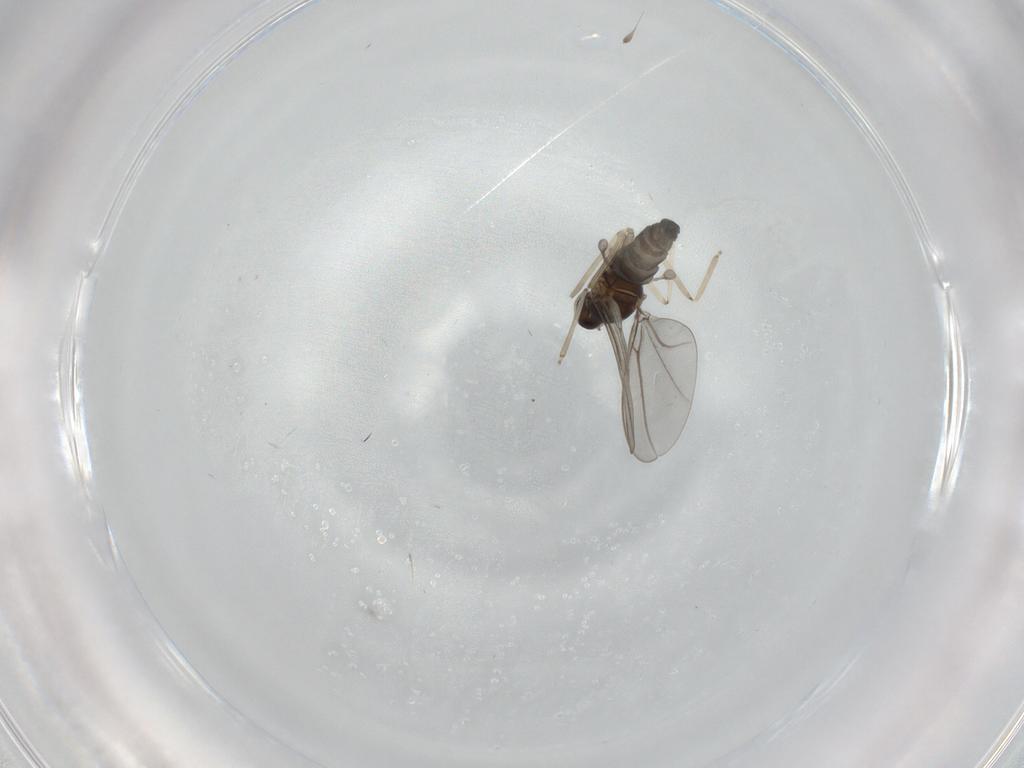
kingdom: Animalia
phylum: Arthropoda
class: Insecta
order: Diptera
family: Cecidomyiidae
